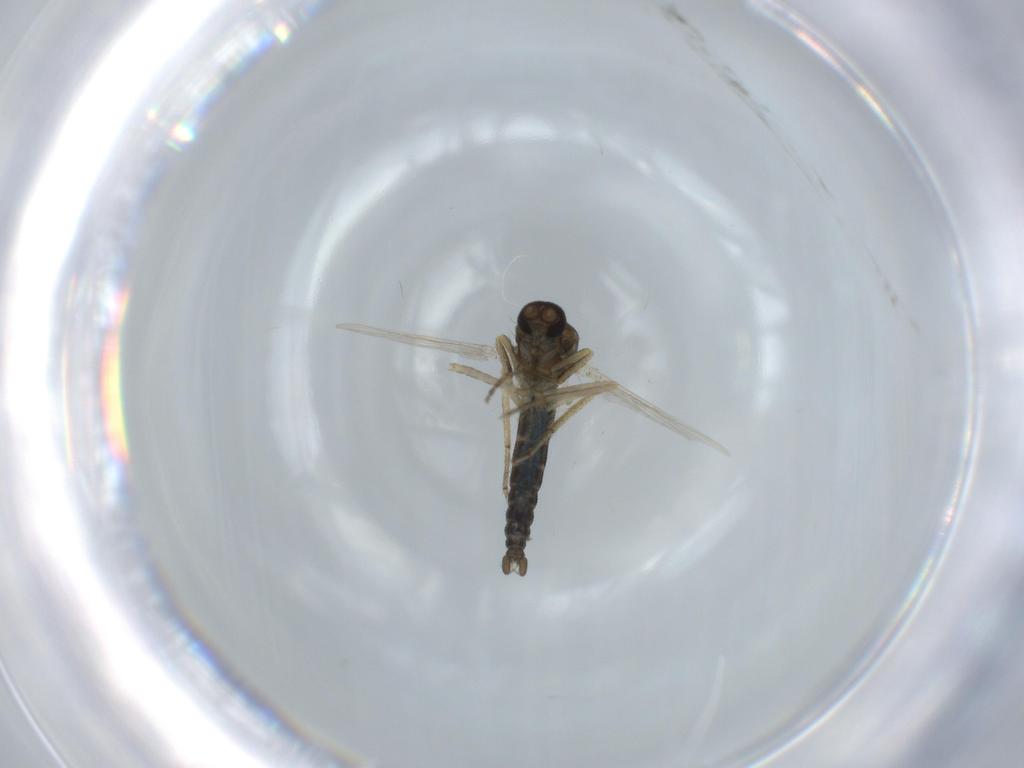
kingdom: Animalia
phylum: Arthropoda
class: Insecta
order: Diptera
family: Ceratopogonidae
